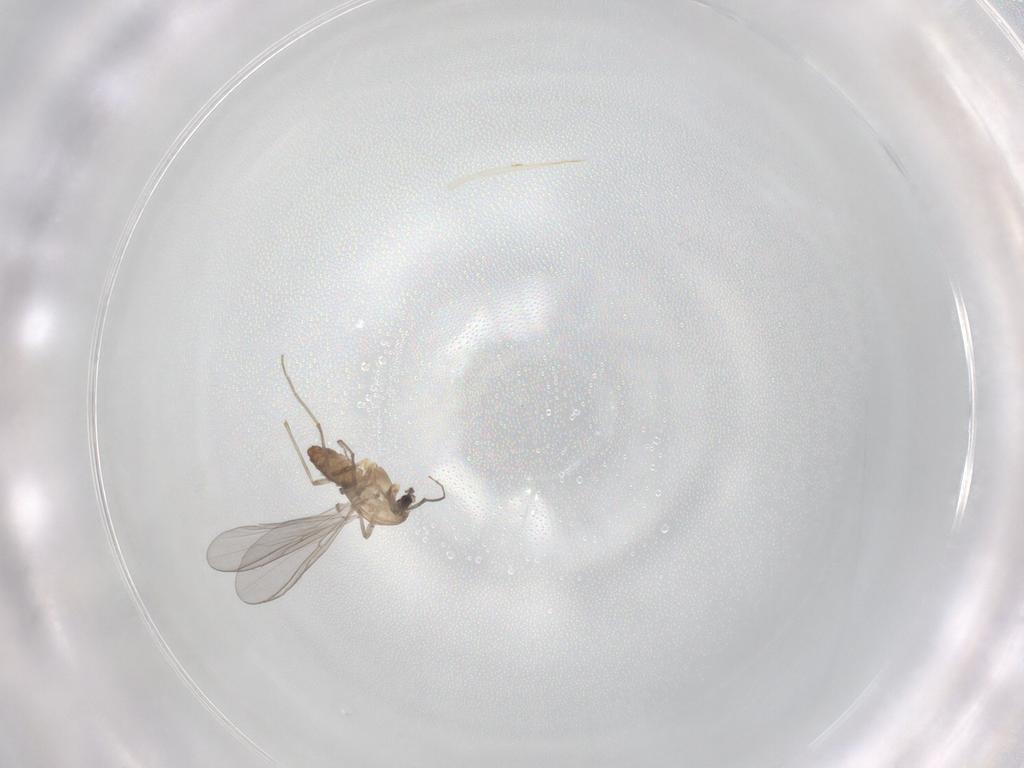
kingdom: Animalia
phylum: Arthropoda
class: Insecta
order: Diptera
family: Chironomidae
